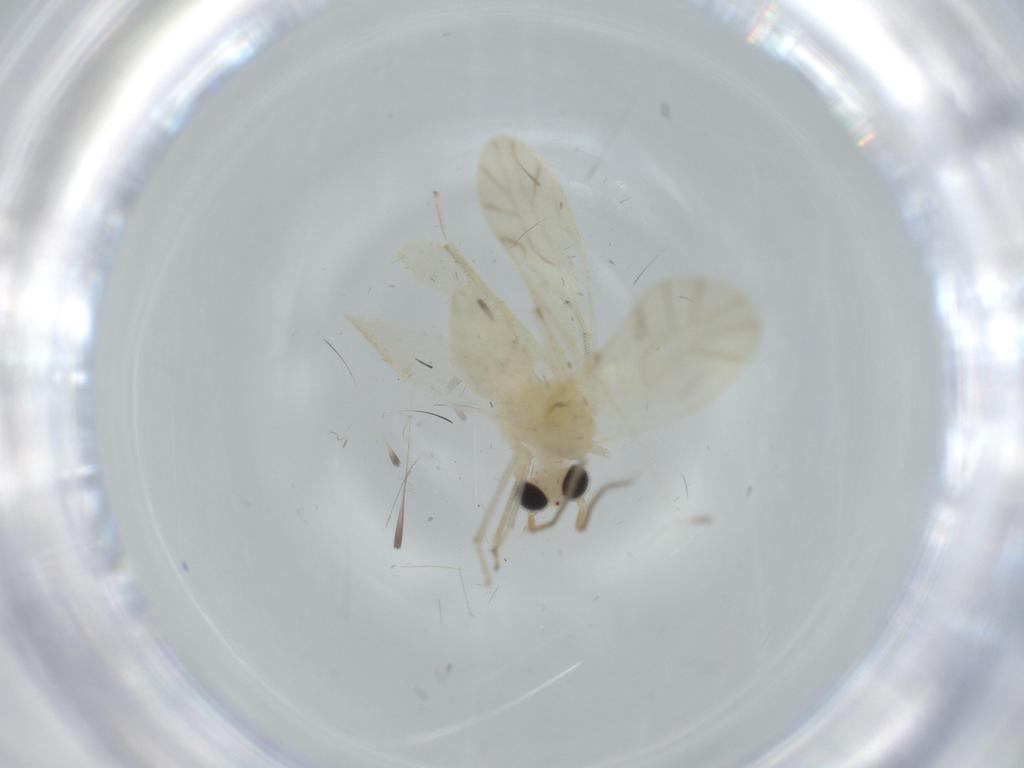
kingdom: Animalia
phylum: Arthropoda
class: Insecta
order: Psocodea
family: Caeciliusidae
